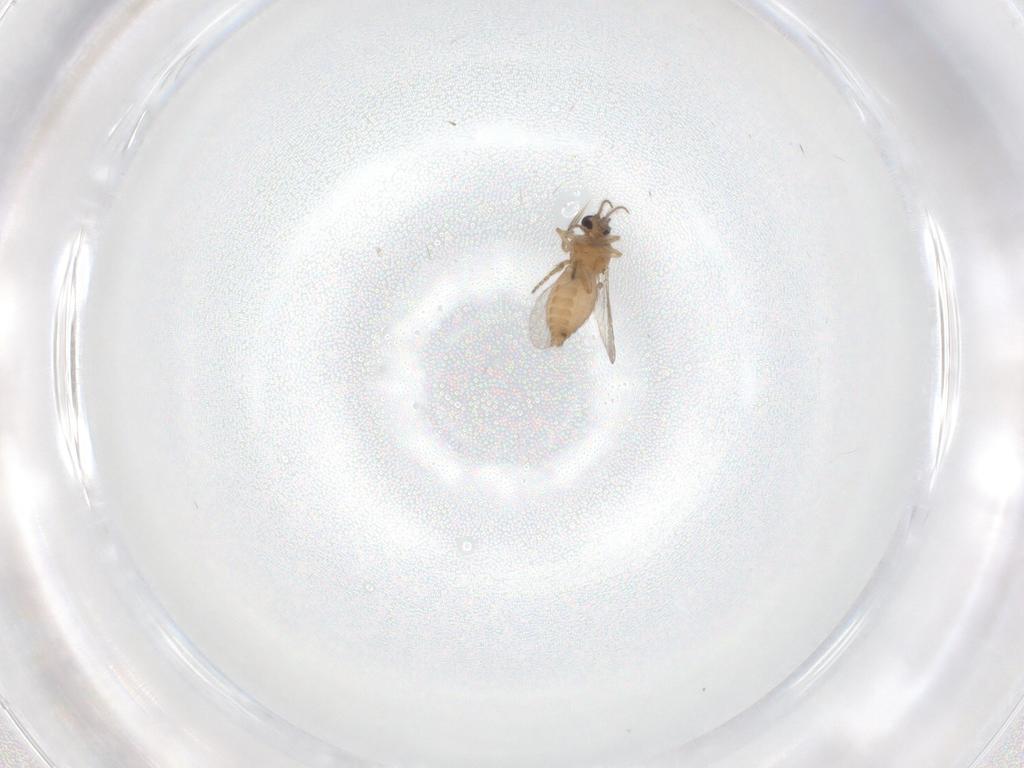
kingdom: Animalia
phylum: Arthropoda
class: Insecta
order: Diptera
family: Ceratopogonidae
